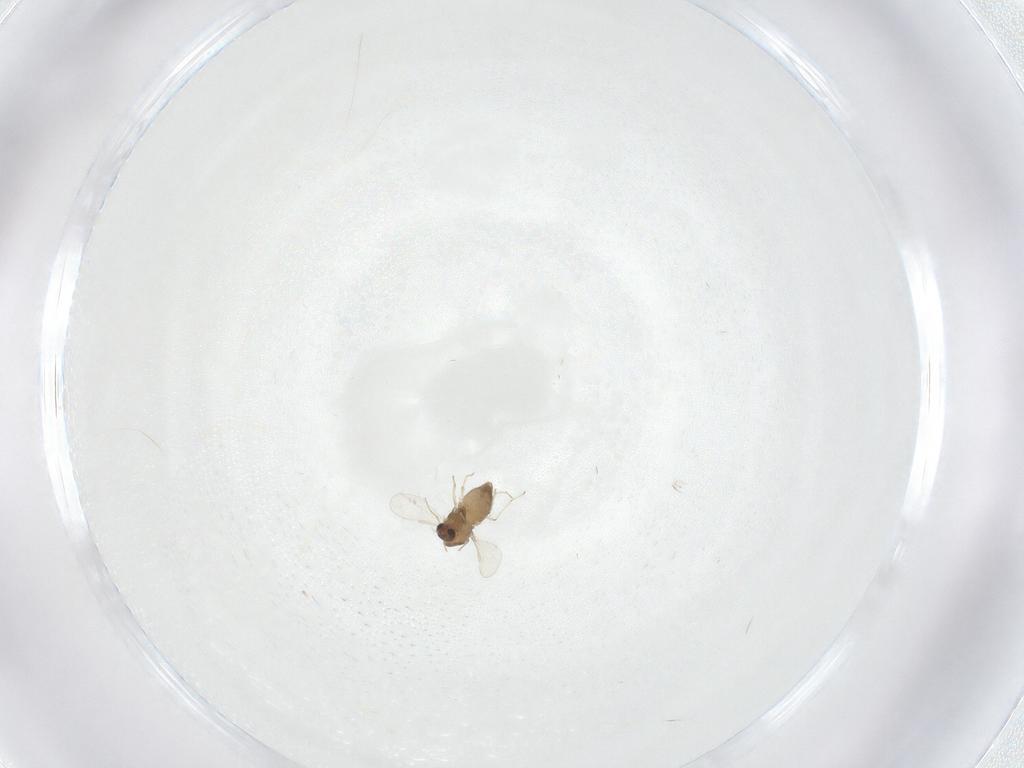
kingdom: Animalia
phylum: Arthropoda
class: Insecta
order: Diptera
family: Chironomidae
